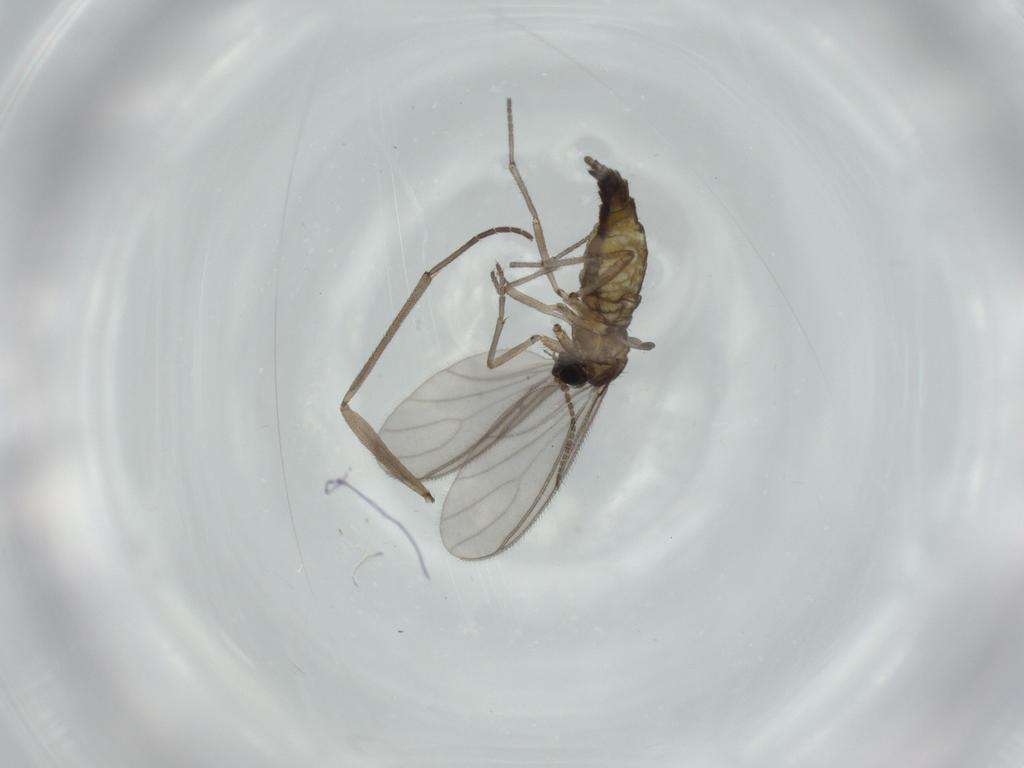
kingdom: Animalia
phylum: Arthropoda
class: Insecta
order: Diptera
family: Sciaridae
